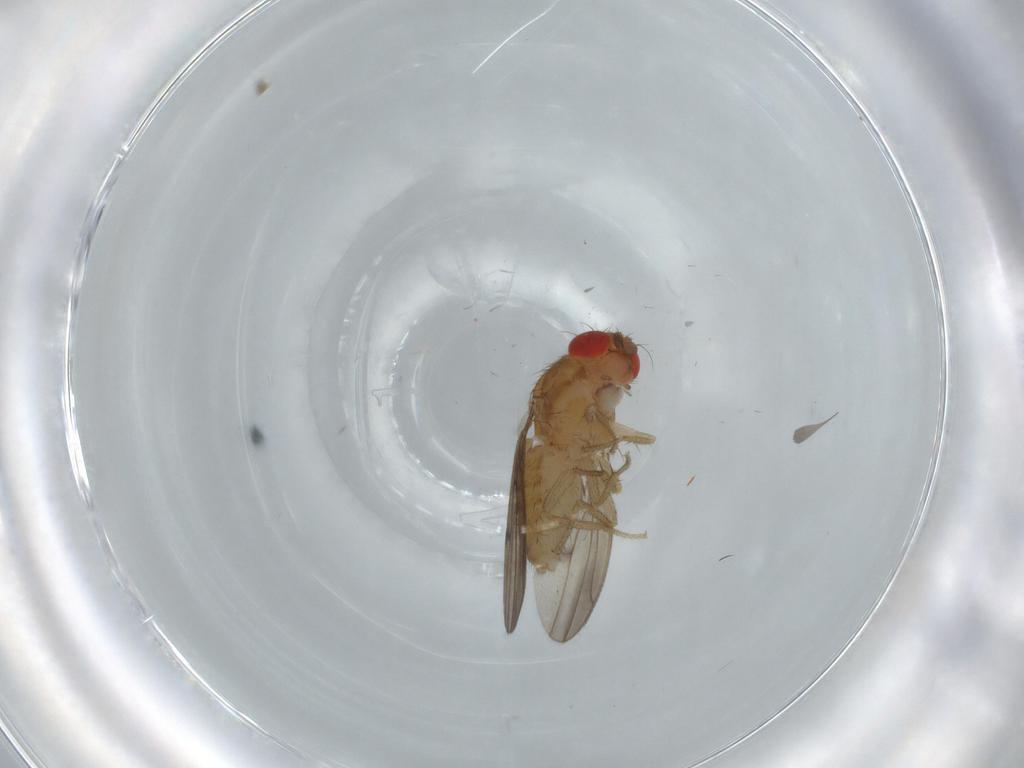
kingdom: Animalia
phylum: Arthropoda
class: Insecta
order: Diptera
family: Drosophilidae
